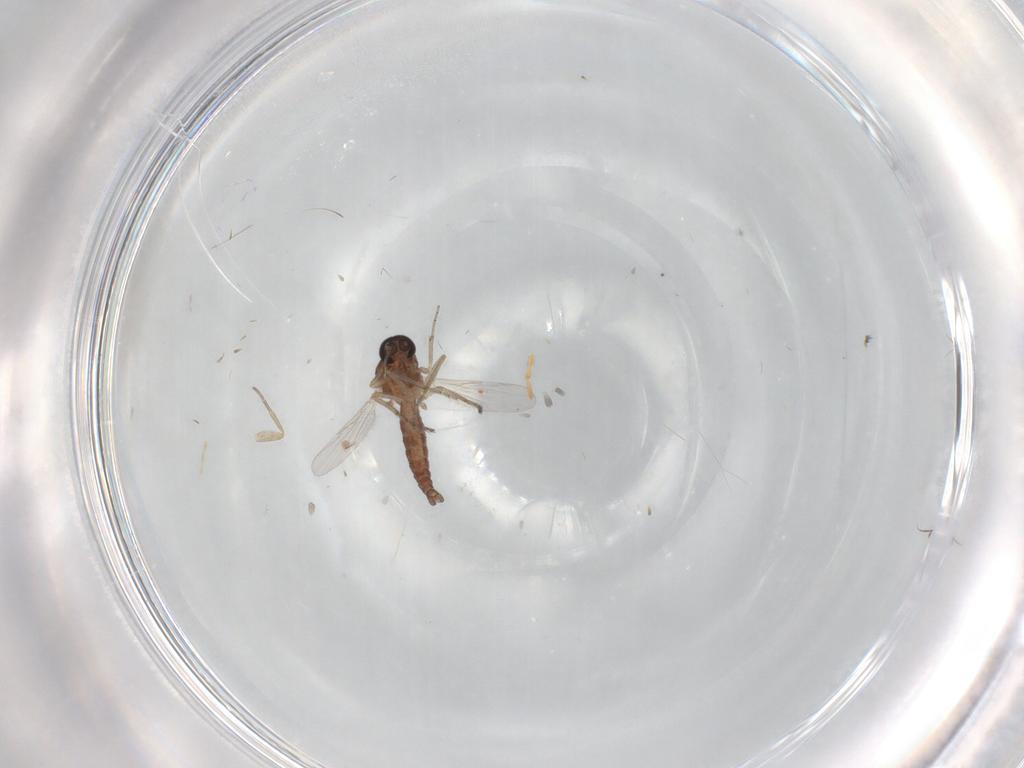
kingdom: Animalia
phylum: Arthropoda
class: Insecta
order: Diptera
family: Ceratopogonidae
